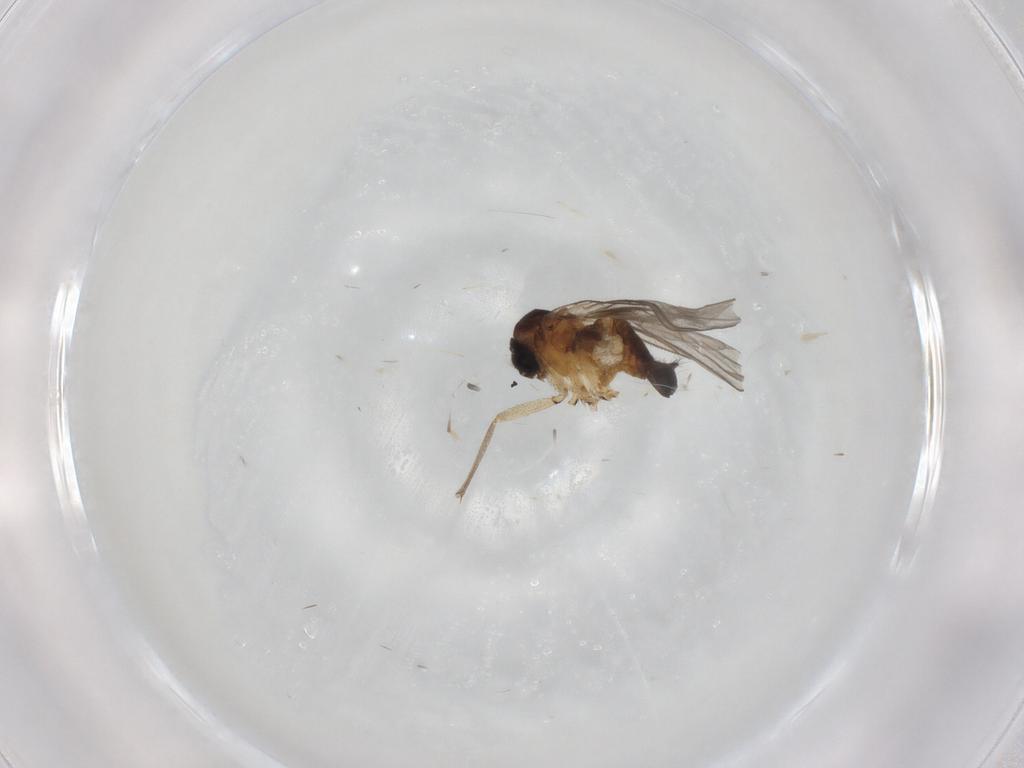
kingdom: Animalia
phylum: Arthropoda
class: Insecta
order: Diptera
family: Sciaridae
